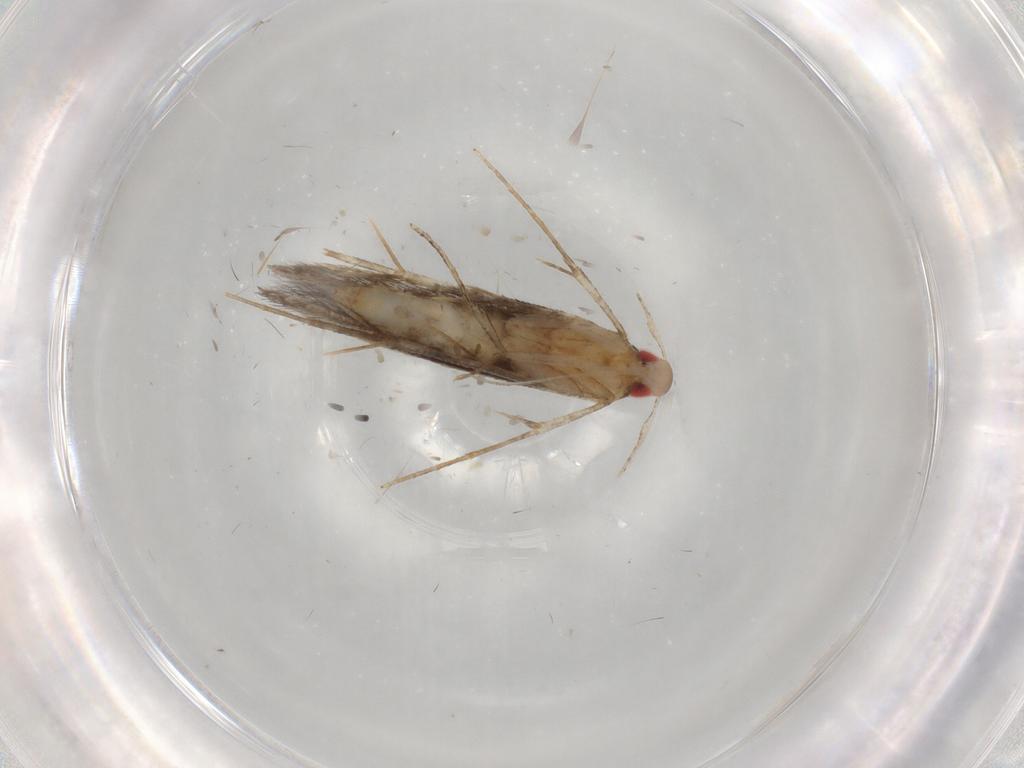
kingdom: Animalia
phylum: Arthropoda
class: Insecta
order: Lepidoptera
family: Cosmopterigidae
